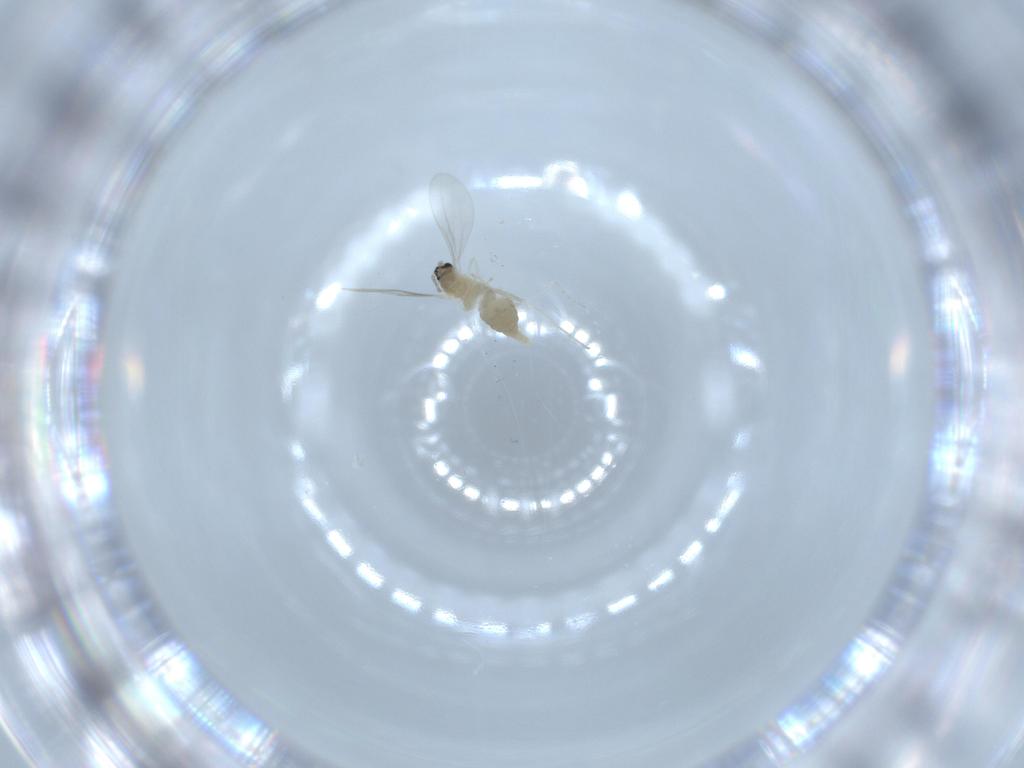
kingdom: Animalia
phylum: Arthropoda
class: Insecta
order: Diptera
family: Cecidomyiidae
